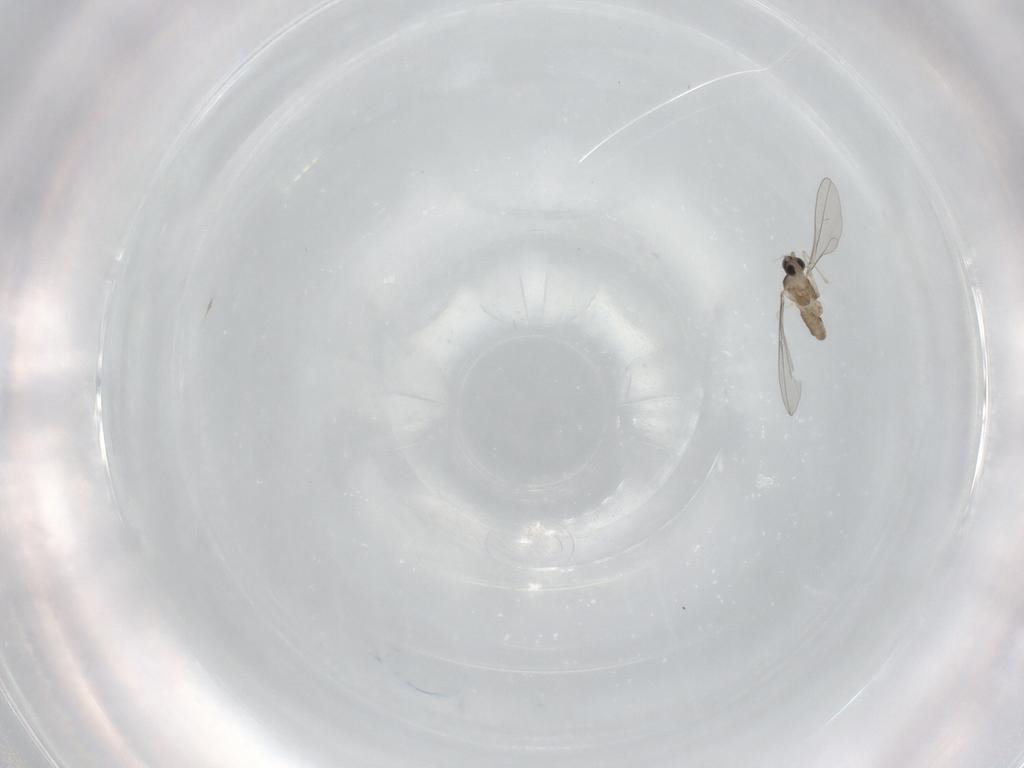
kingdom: Animalia
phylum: Arthropoda
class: Insecta
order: Diptera
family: Cecidomyiidae
